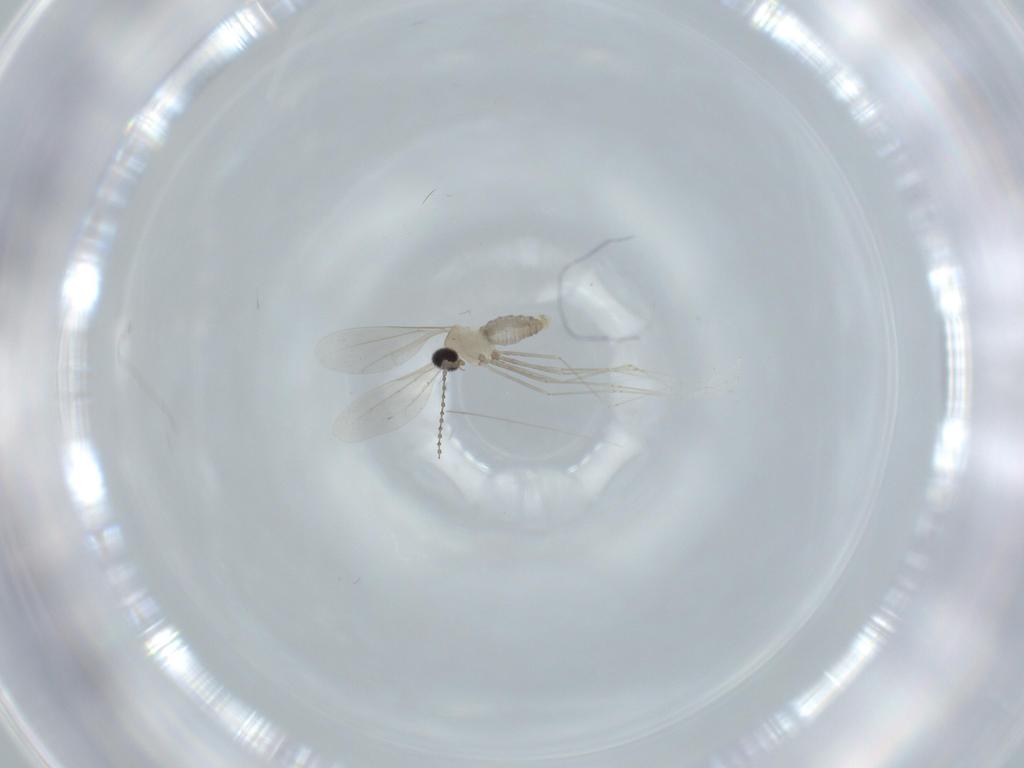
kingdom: Animalia
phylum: Arthropoda
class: Insecta
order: Diptera
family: Cecidomyiidae
